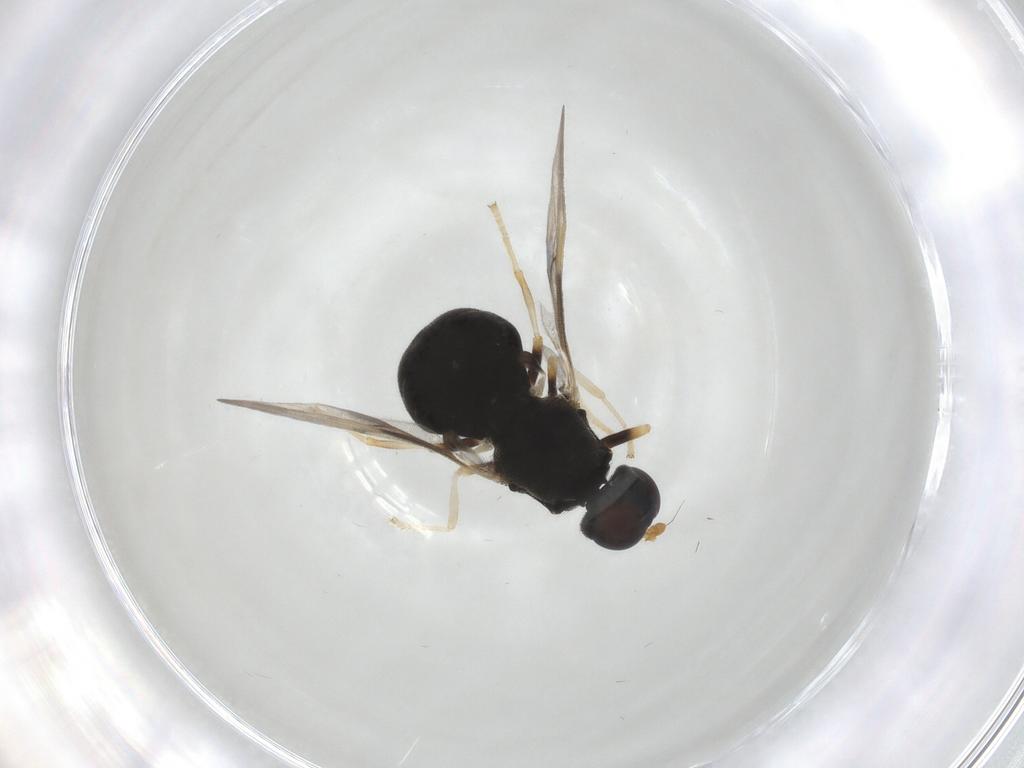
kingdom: Animalia
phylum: Arthropoda
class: Insecta
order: Diptera
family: Stratiomyidae
